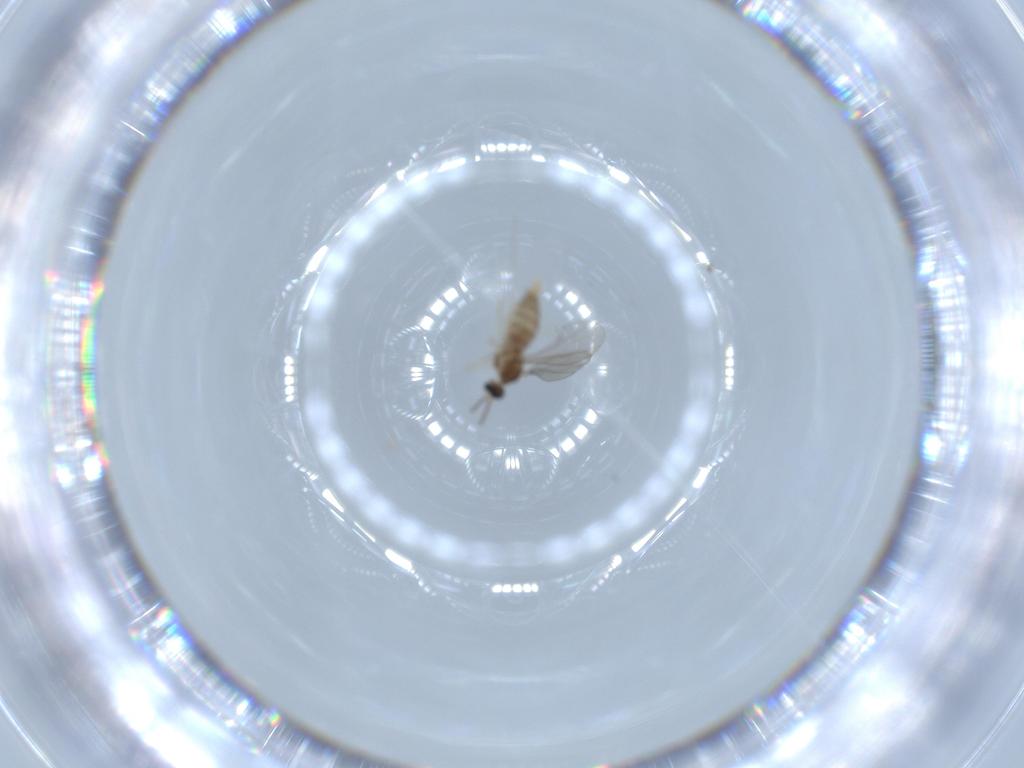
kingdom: Animalia
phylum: Arthropoda
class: Insecta
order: Diptera
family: Cecidomyiidae
